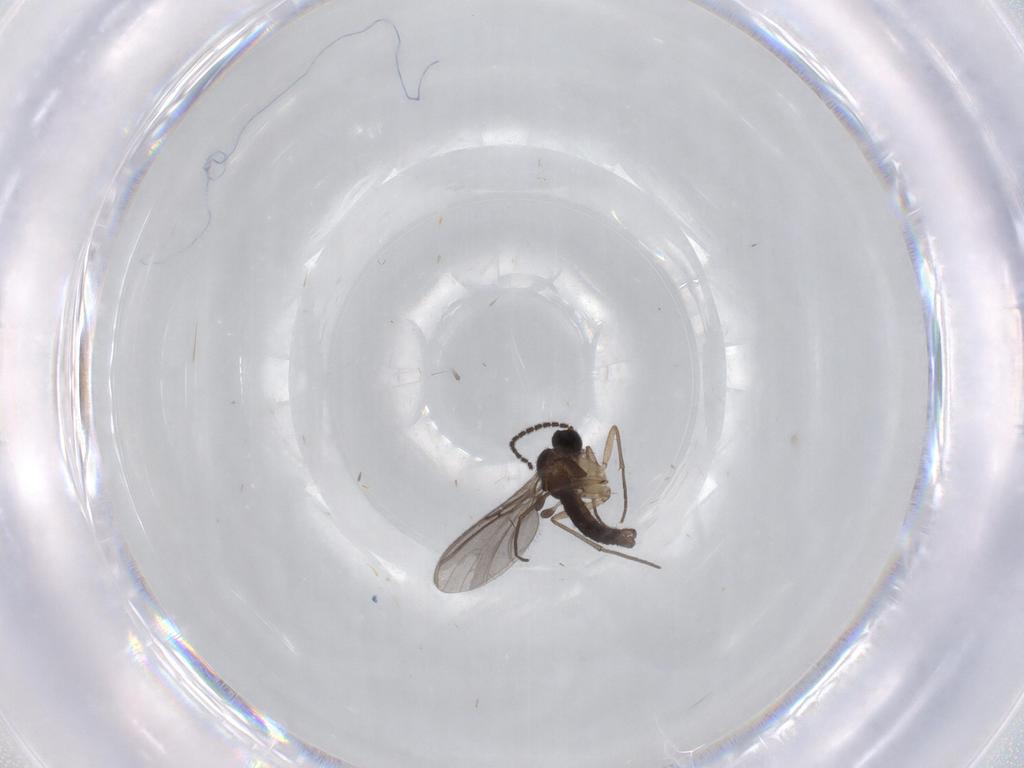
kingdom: Animalia
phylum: Arthropoda
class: Insecta
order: Diptera
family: Sciaridae
